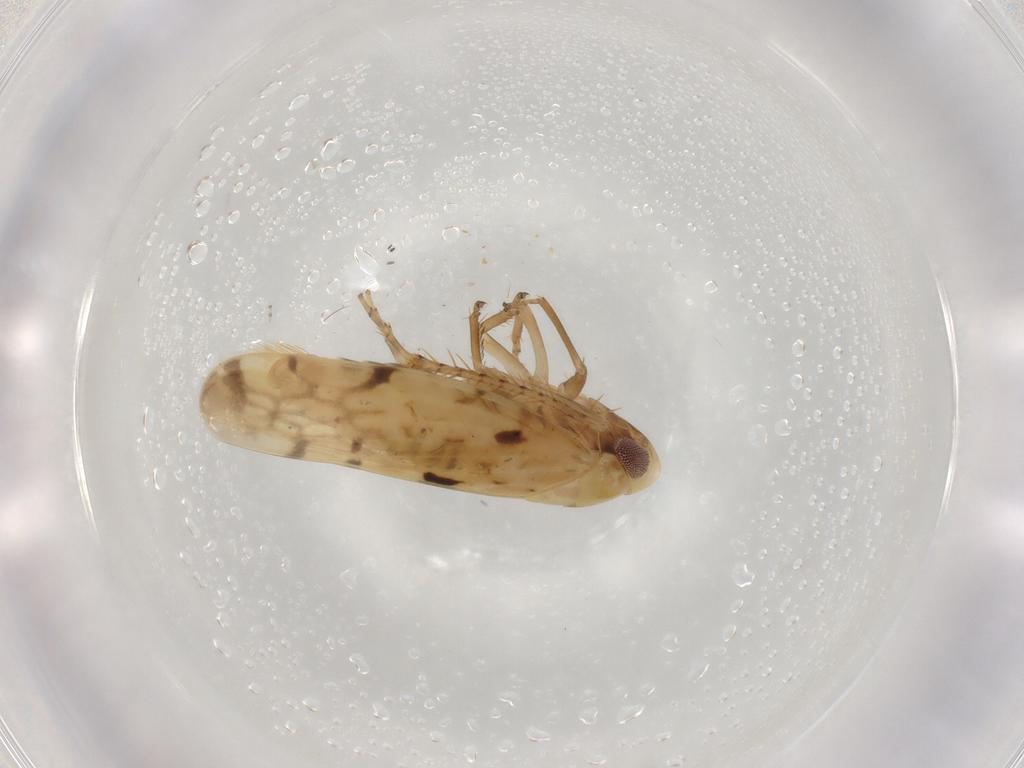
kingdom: Animalia
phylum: Arthropoda
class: Insecta
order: Hemiptera
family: Cicadellidae
